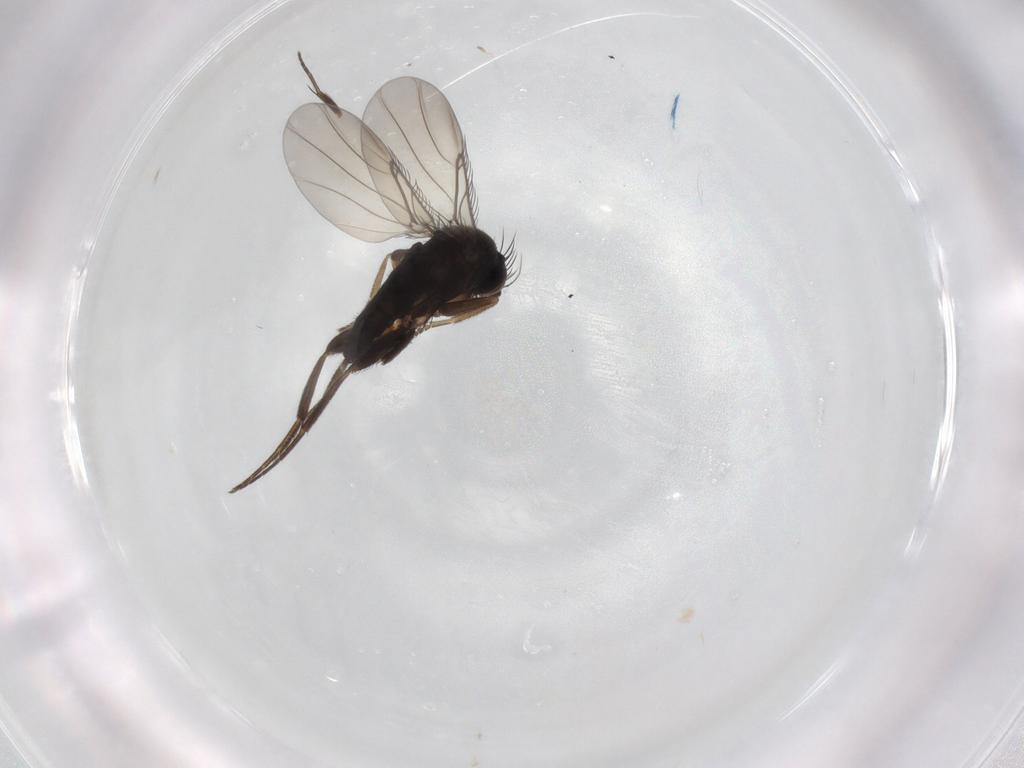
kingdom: Animalia
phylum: Arthropoda
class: Insecta
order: Diptera
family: Phoridae
